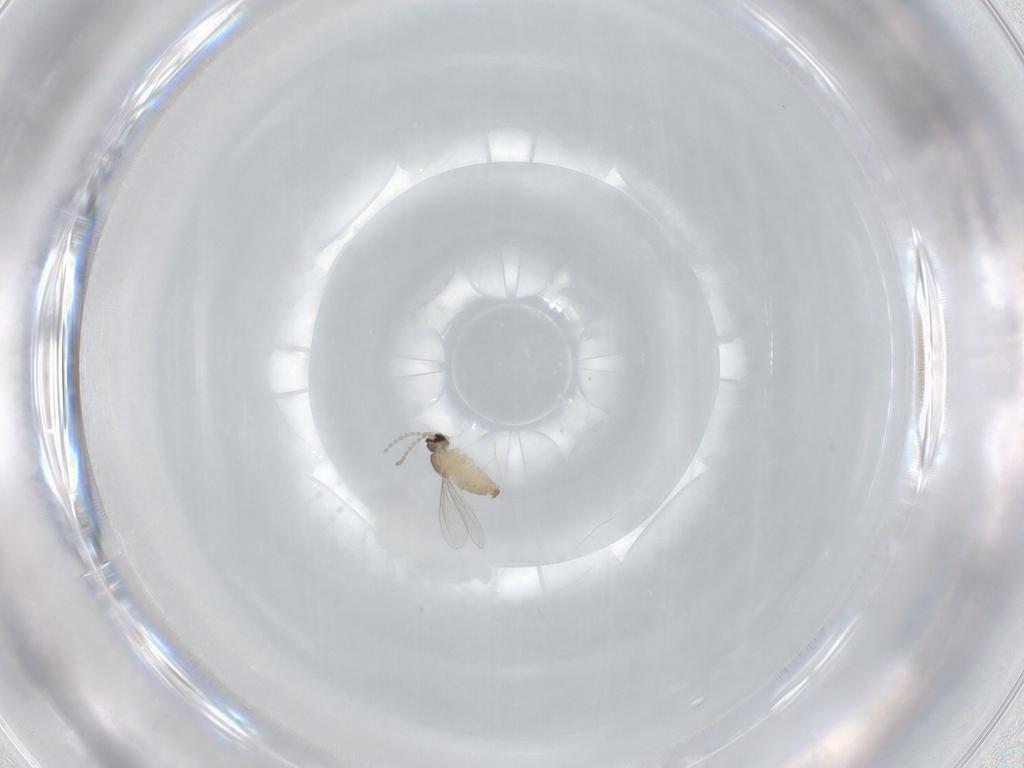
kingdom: Animalia
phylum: Arthropoda
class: Insecta
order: Diptera
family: Cecidomyiidae
